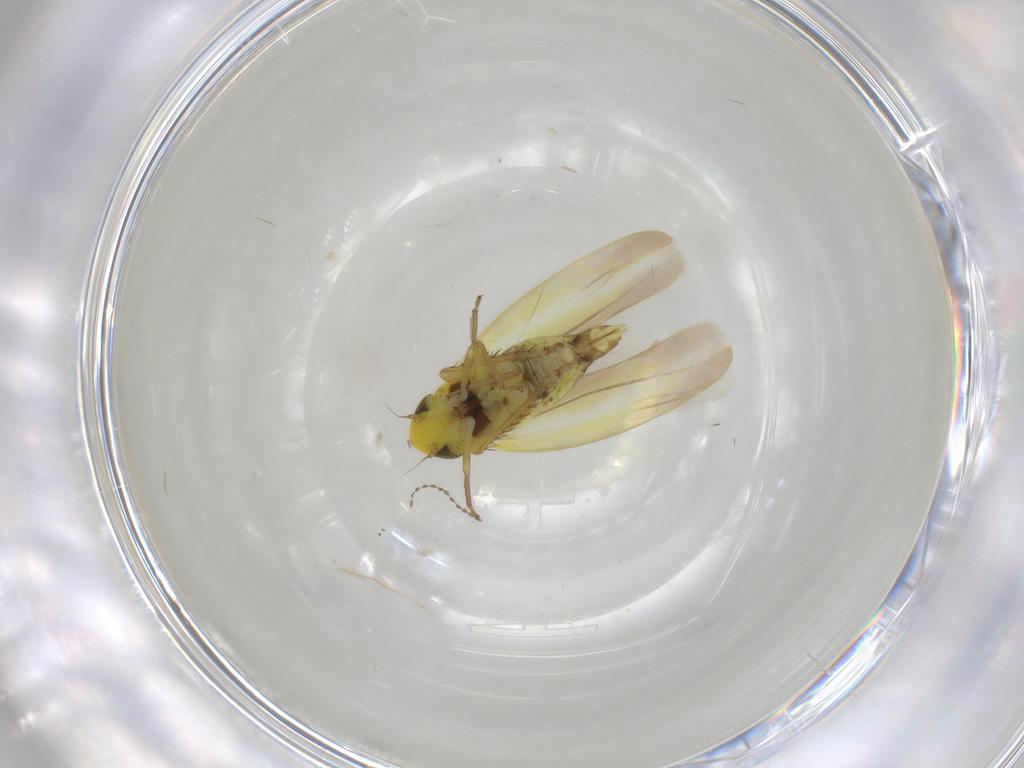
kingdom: Animalia
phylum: Arthropoda
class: Insecta
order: Hemiptera
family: Cicadellidae
